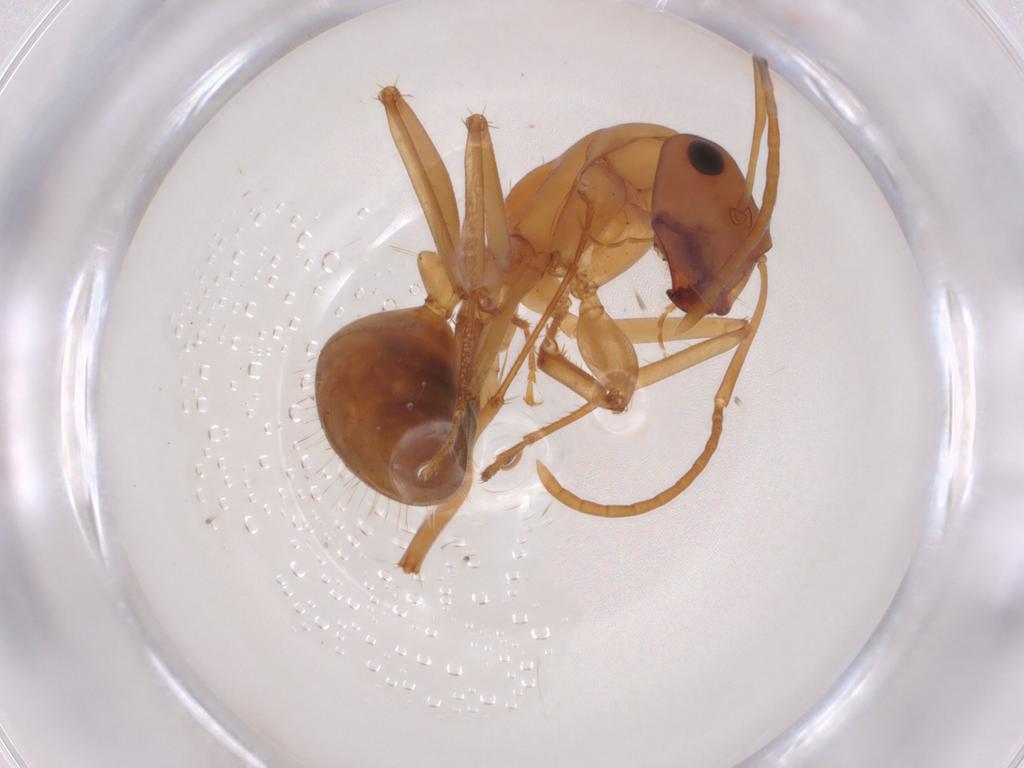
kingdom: Animalia
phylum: Arthropoda
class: Insecta
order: Hymenoptera
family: Formicidae
